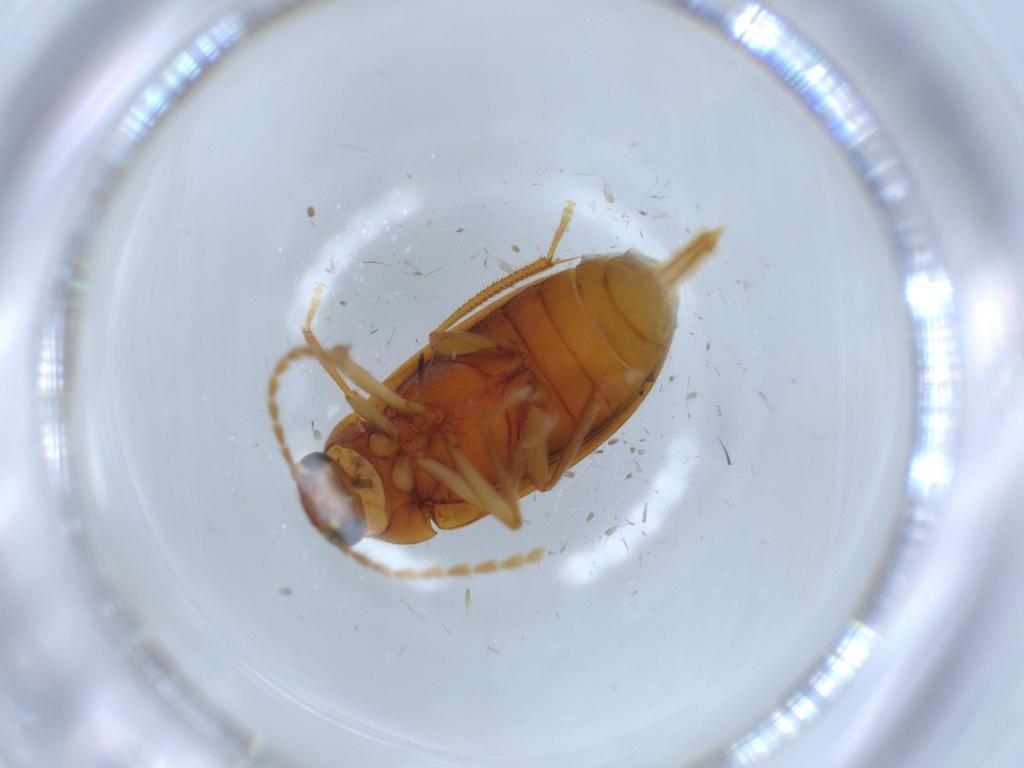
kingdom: Animalia
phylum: Arthropoda
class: Insecta
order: Coleoptera
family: Ptilodactylidae
